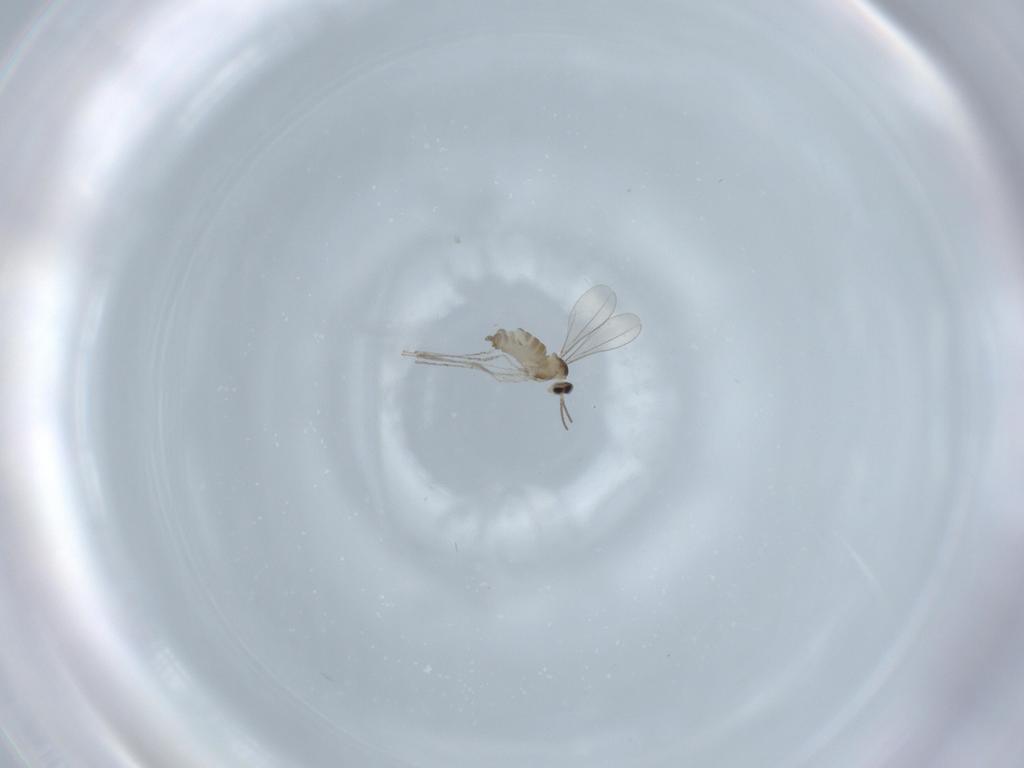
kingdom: Animalia
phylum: Arthropoda
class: Insecta
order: Diptera
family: Cecidomyiidae
